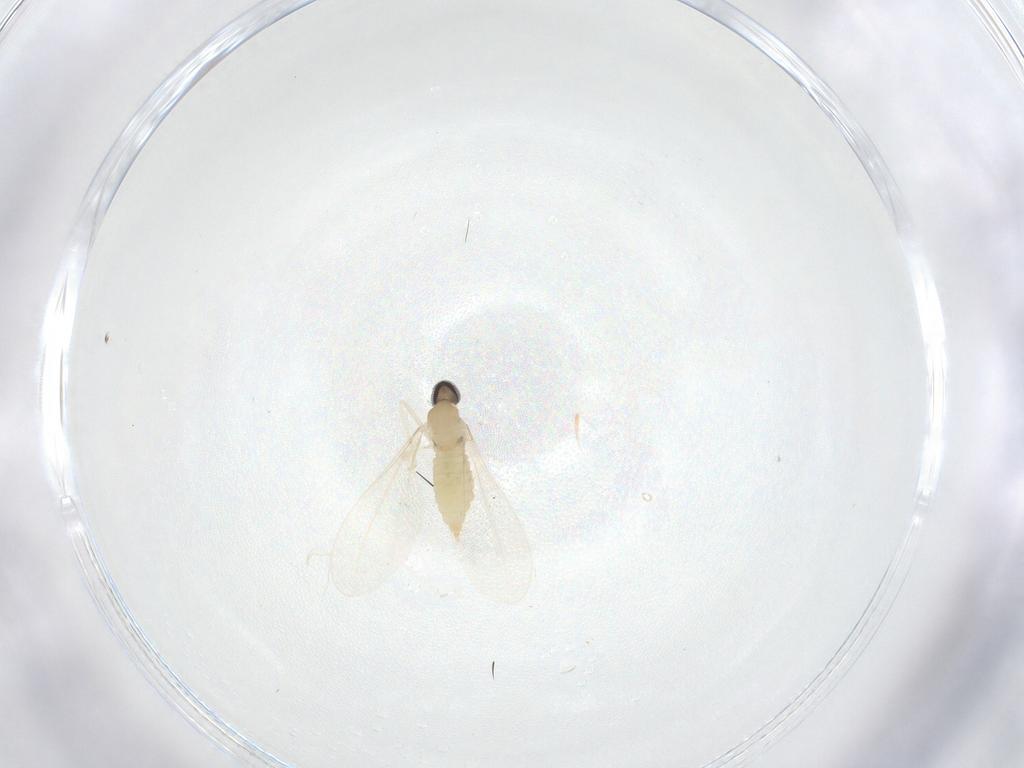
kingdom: Animalia
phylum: Arthropoda
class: Insecta
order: Diptera
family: Cecidomyiidae
